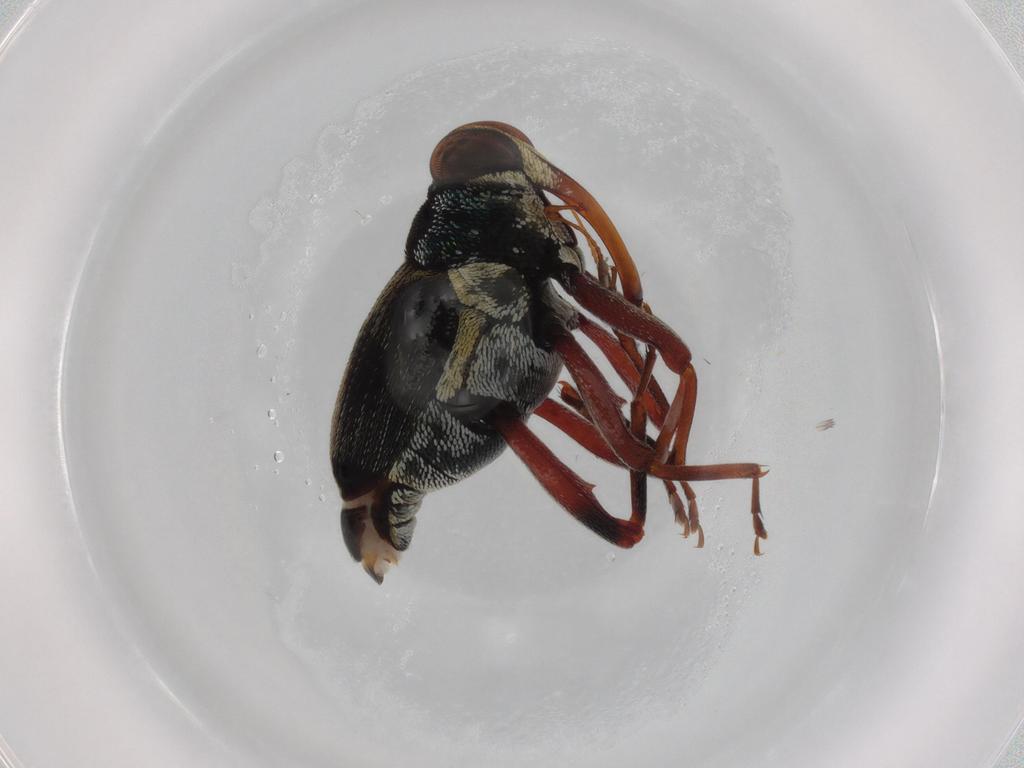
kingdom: Animalia
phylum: Arthropoda
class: Insecta
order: Coleoptera
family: Curculionidae
